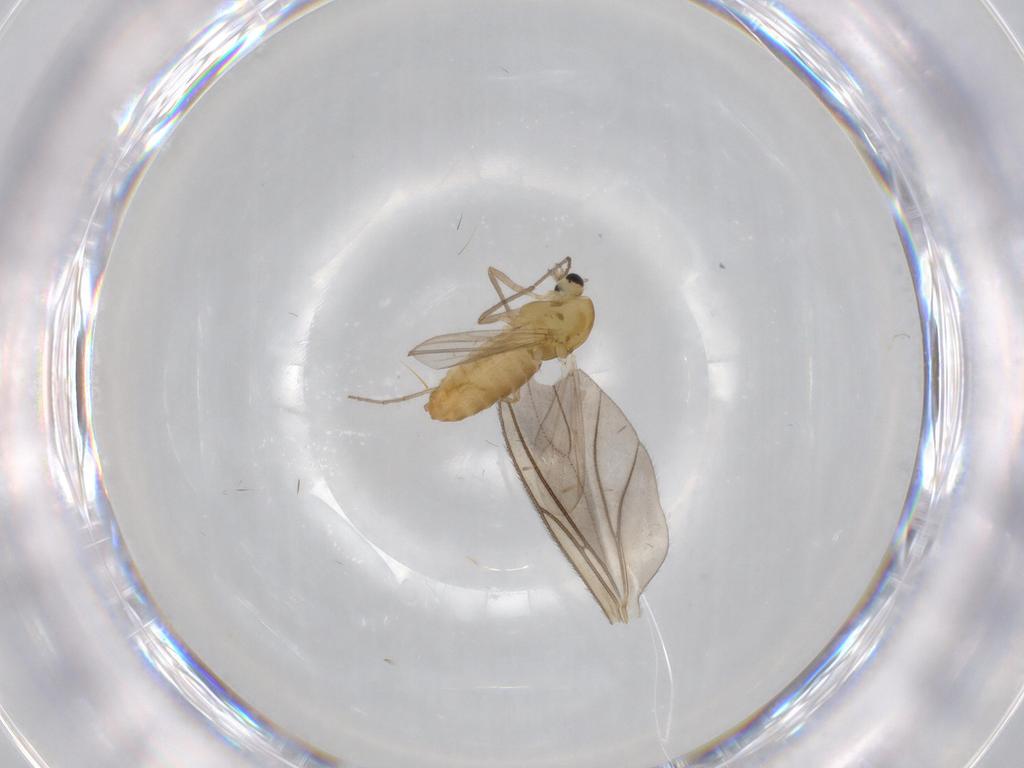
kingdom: Animalia
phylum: Arthropoda
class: Insecta
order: Diptera
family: Chironomidae
